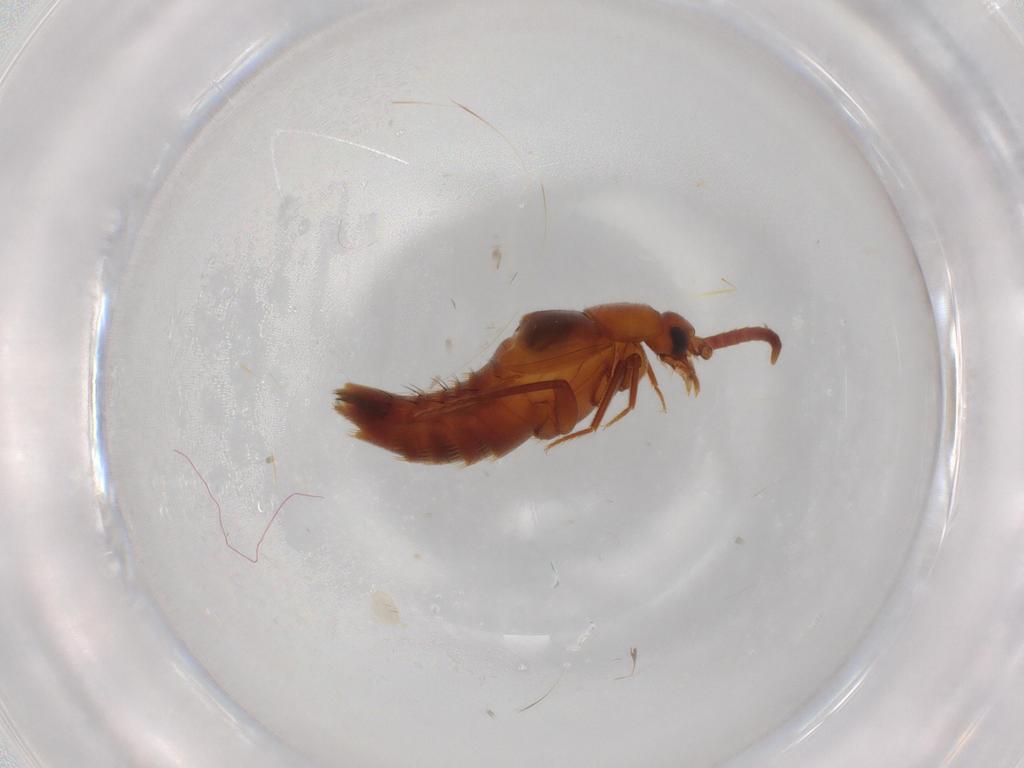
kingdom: Animalia
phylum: Arthropoda
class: Insecta
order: Coleoptera
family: Staphylinidae
